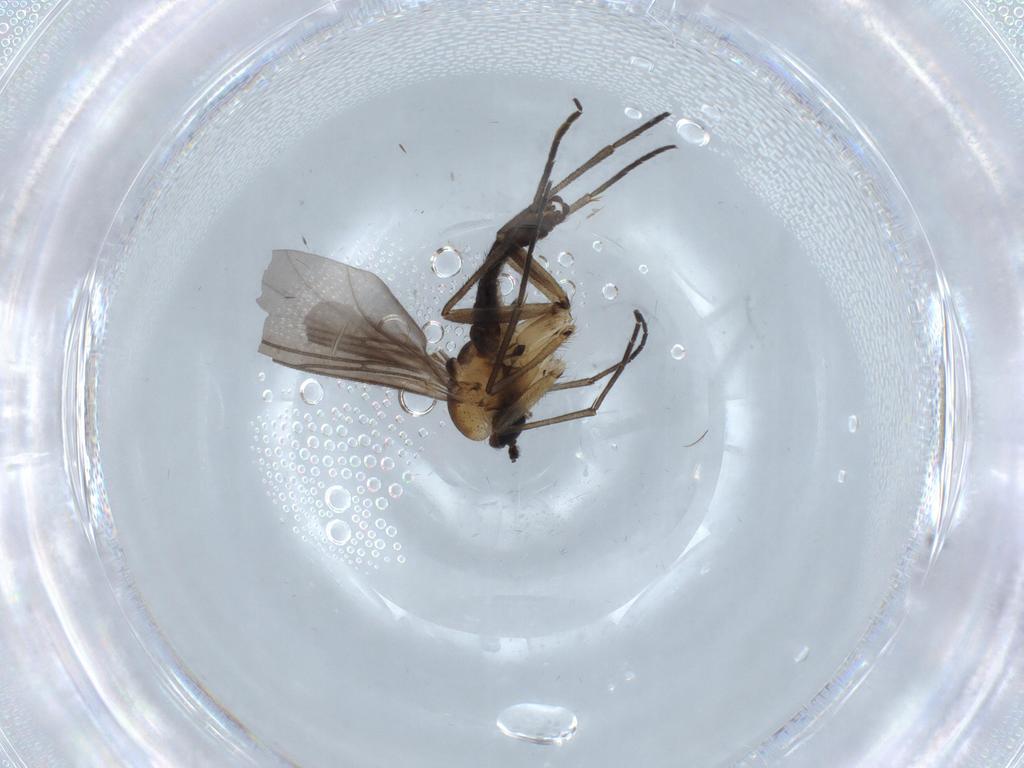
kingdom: Animalia
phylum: Arthropoda
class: Insecta
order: Diptera
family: Sciaridae
